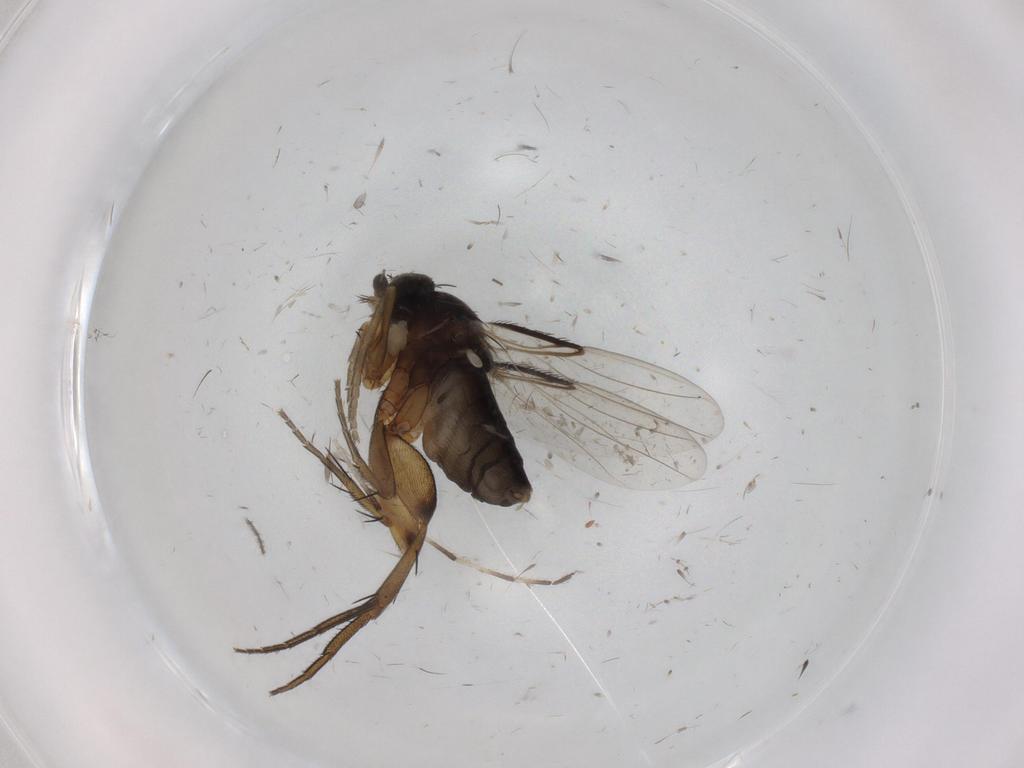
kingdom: Animalia
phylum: Arthropoda
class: Insecta
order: Diptera
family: Phoridae
